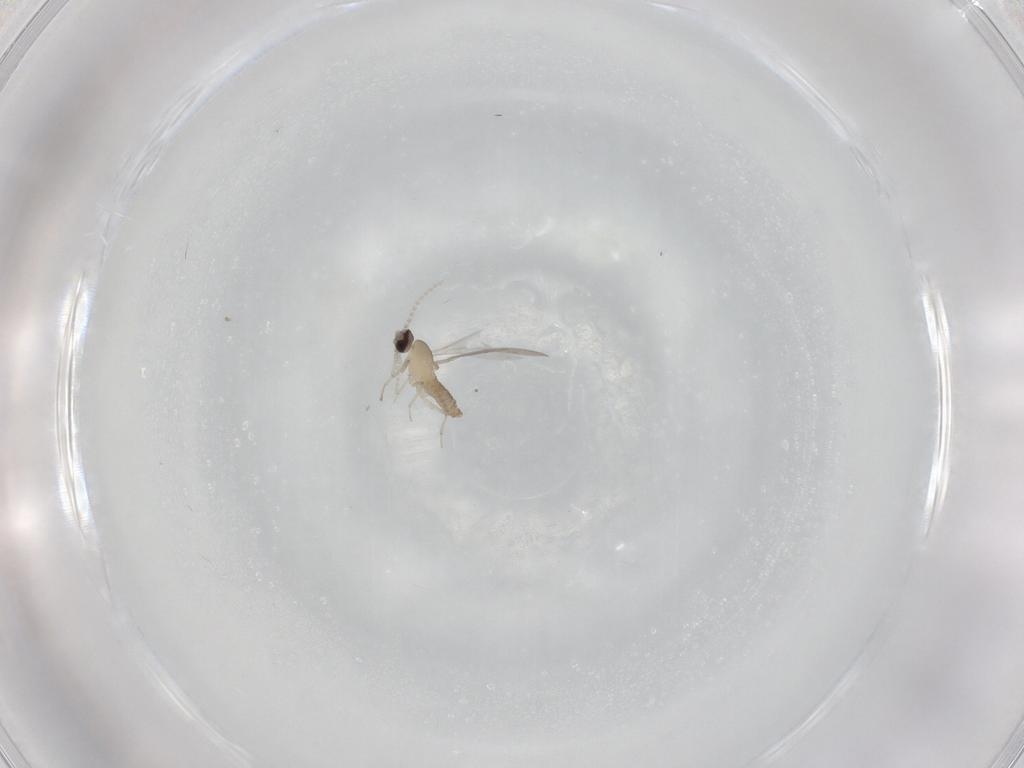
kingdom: Animalia
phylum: Arthropoda
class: Insecta
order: Diptera
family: Cecidomyiidae
